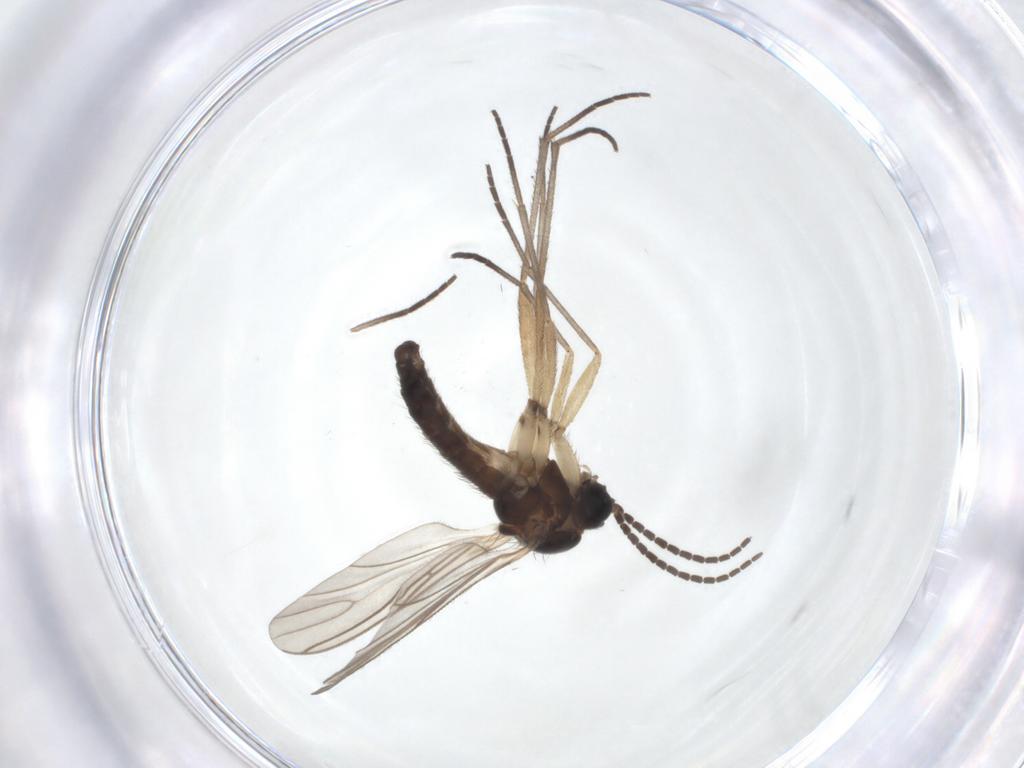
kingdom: Animalia
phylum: Arthropoda
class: Insecta
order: Diptera
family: Sciaridae
